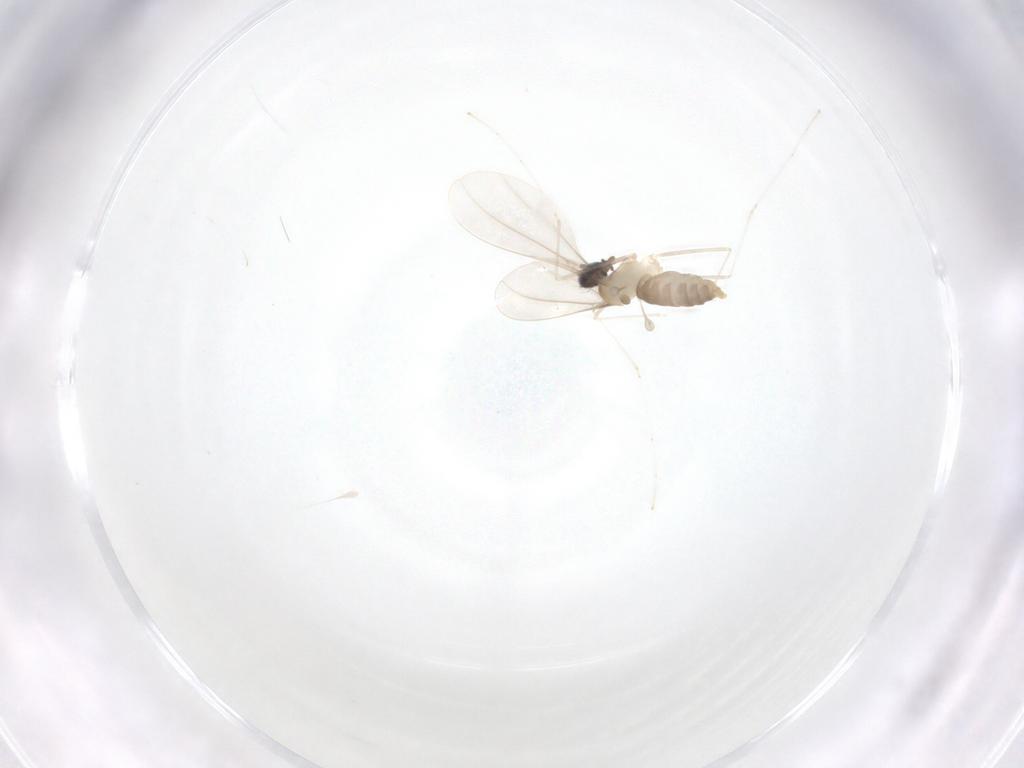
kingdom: Animalia
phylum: Arthropoda
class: Insecta
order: Diptera
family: Cecidomyiidae
